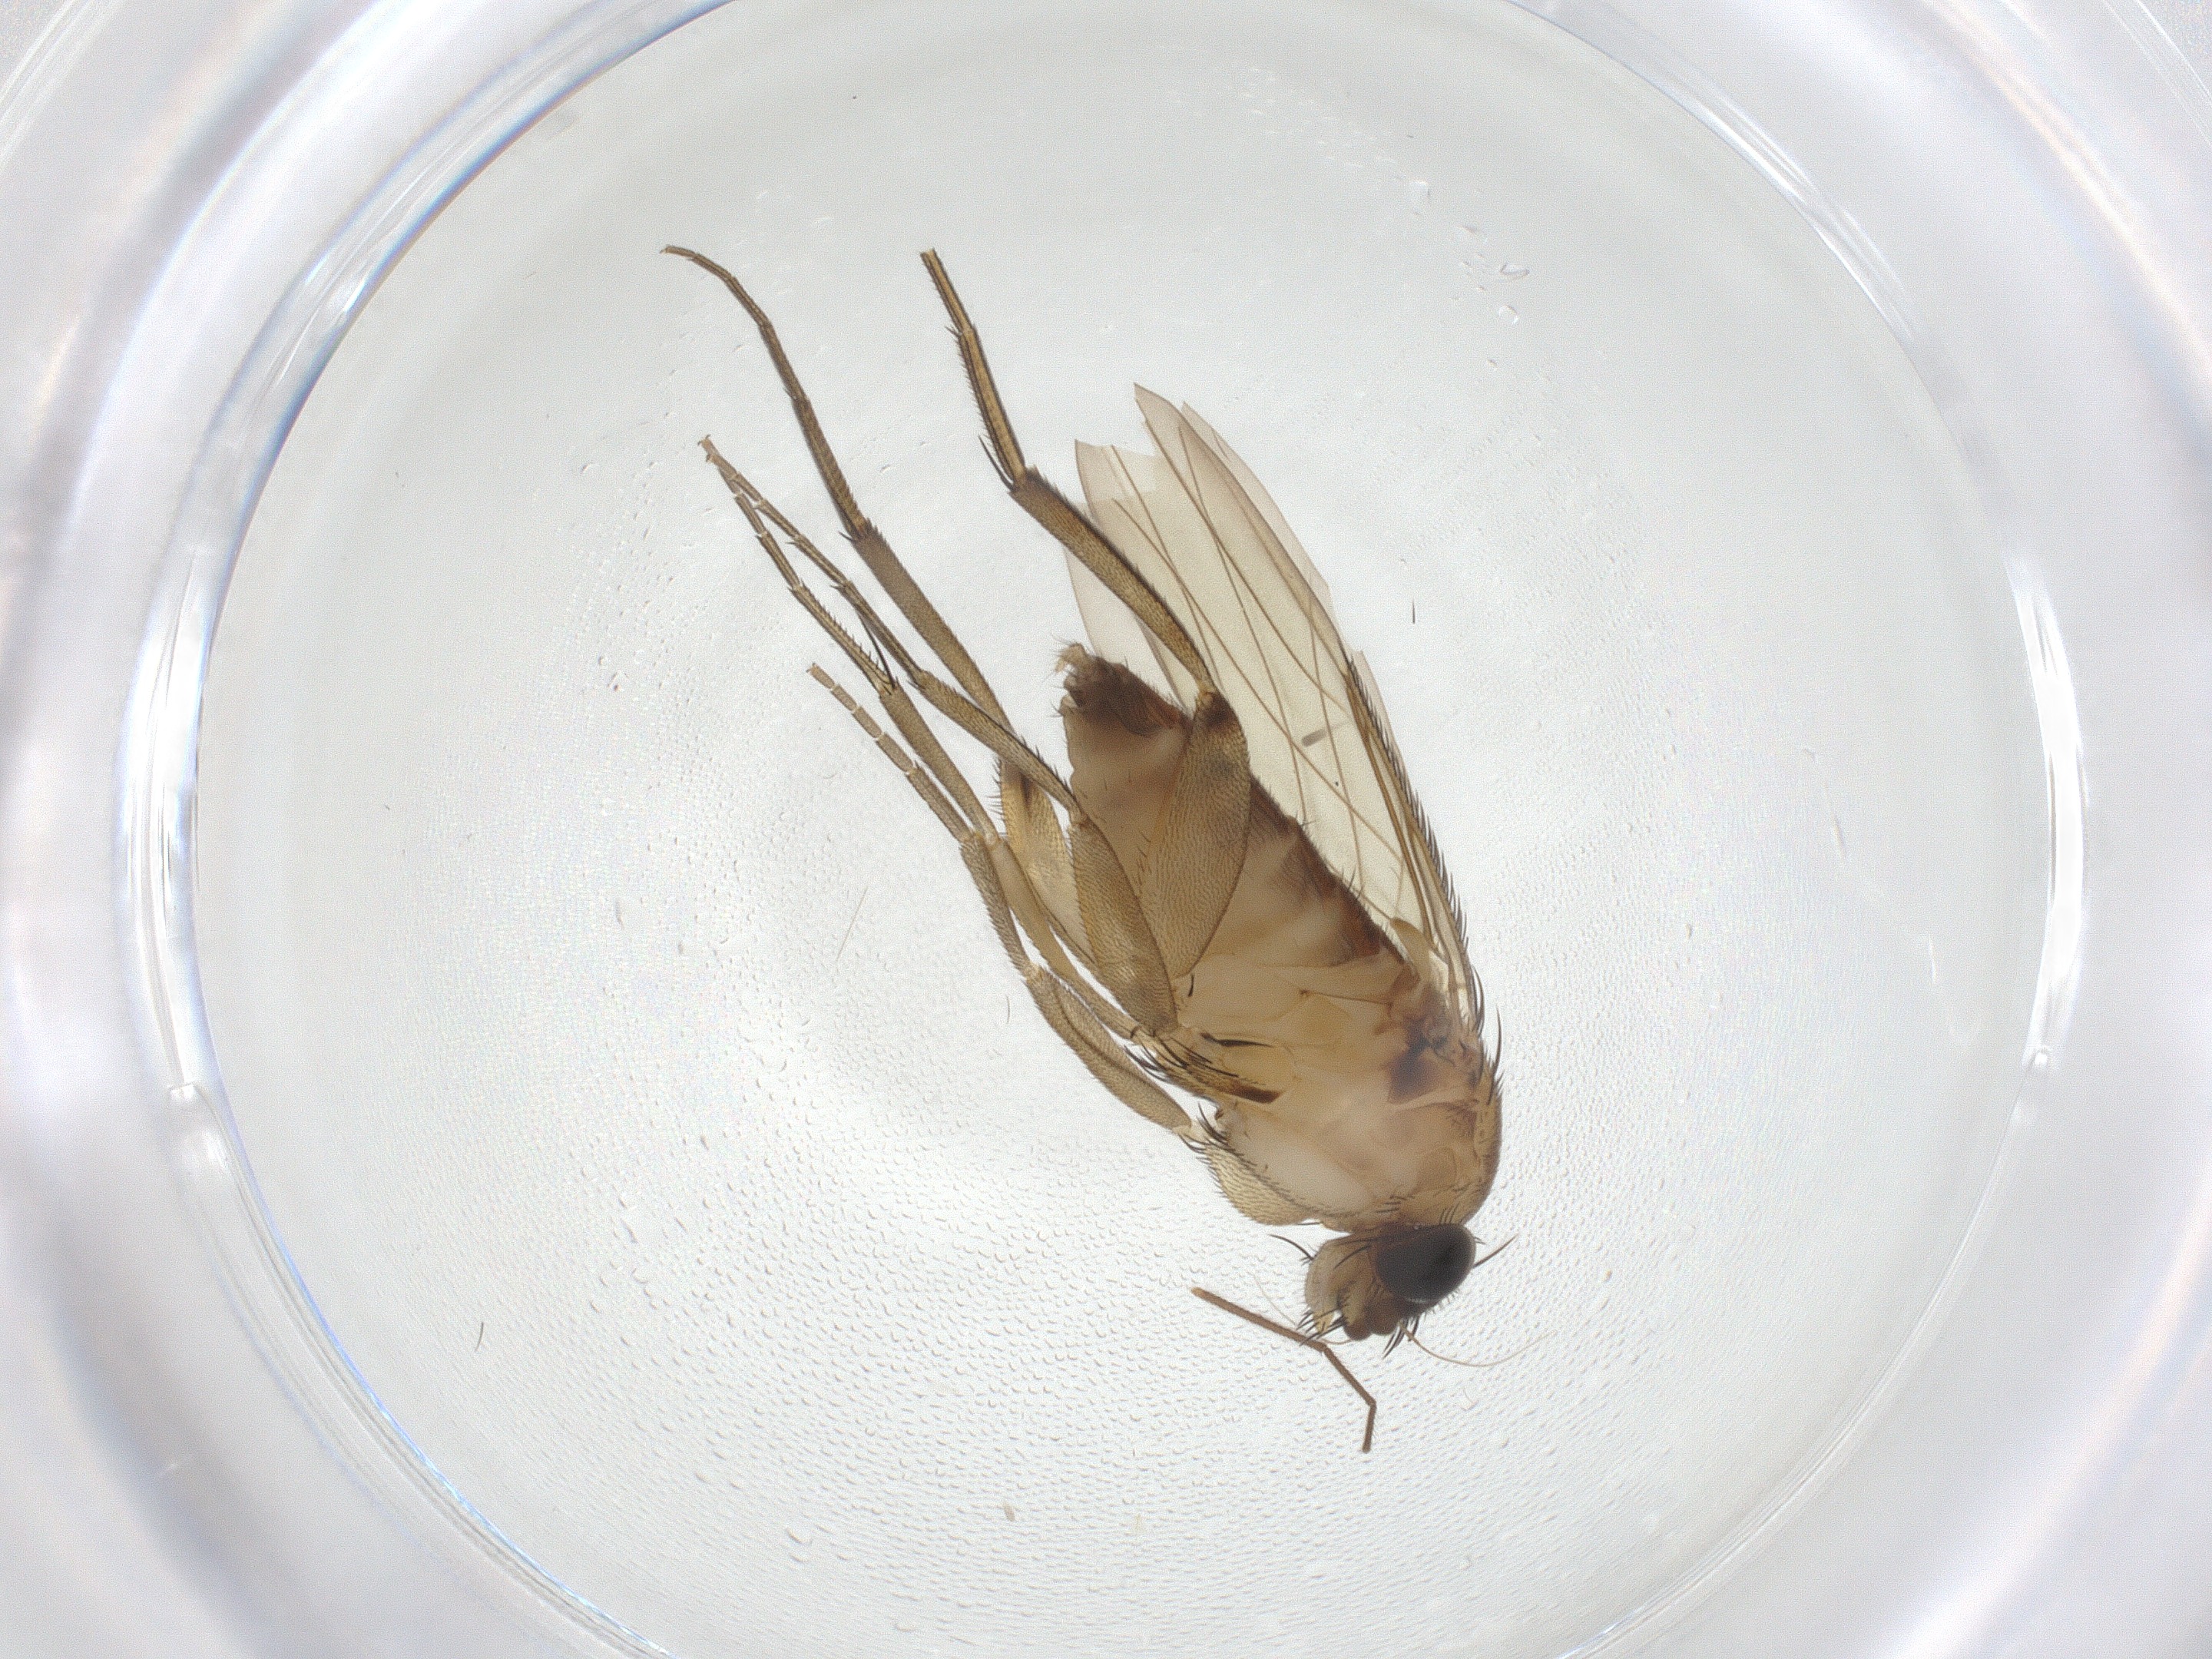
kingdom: Animalia
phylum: Arthropoda
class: Insecta
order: Diptera
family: Phoridae
